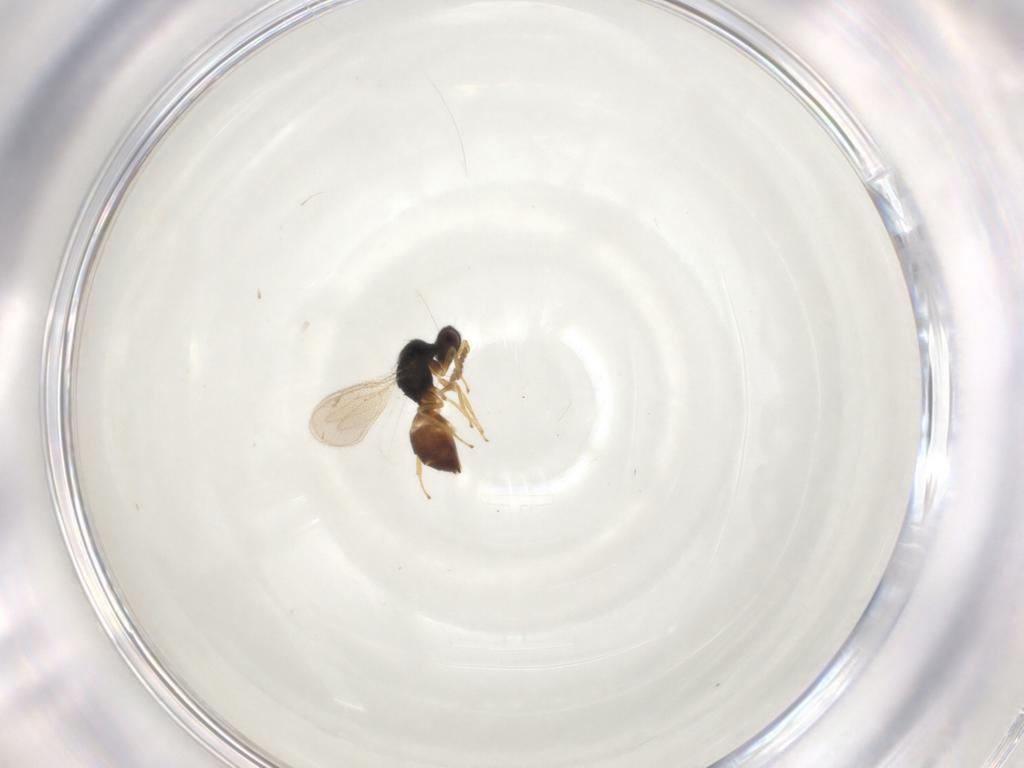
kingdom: Animalia
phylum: Arthropoda
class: Insecta
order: Hymenoptera
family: Eulophidae
